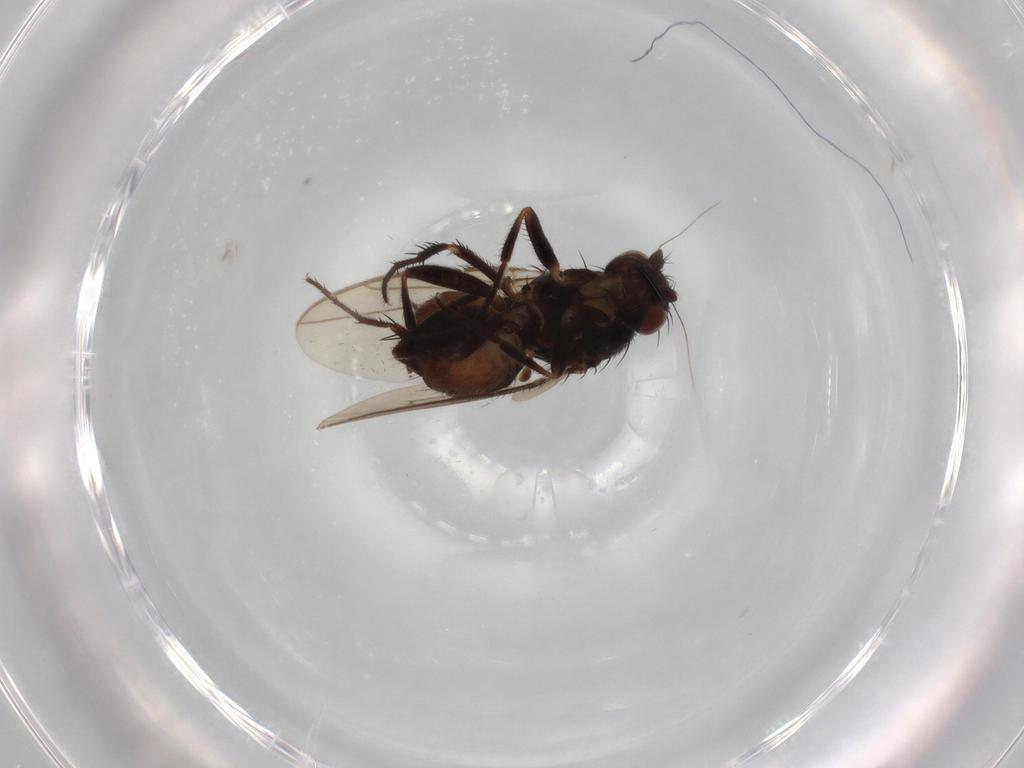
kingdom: Animalia
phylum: Arthropoda
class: Insecta
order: Diptera
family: Sphaeroceridae
